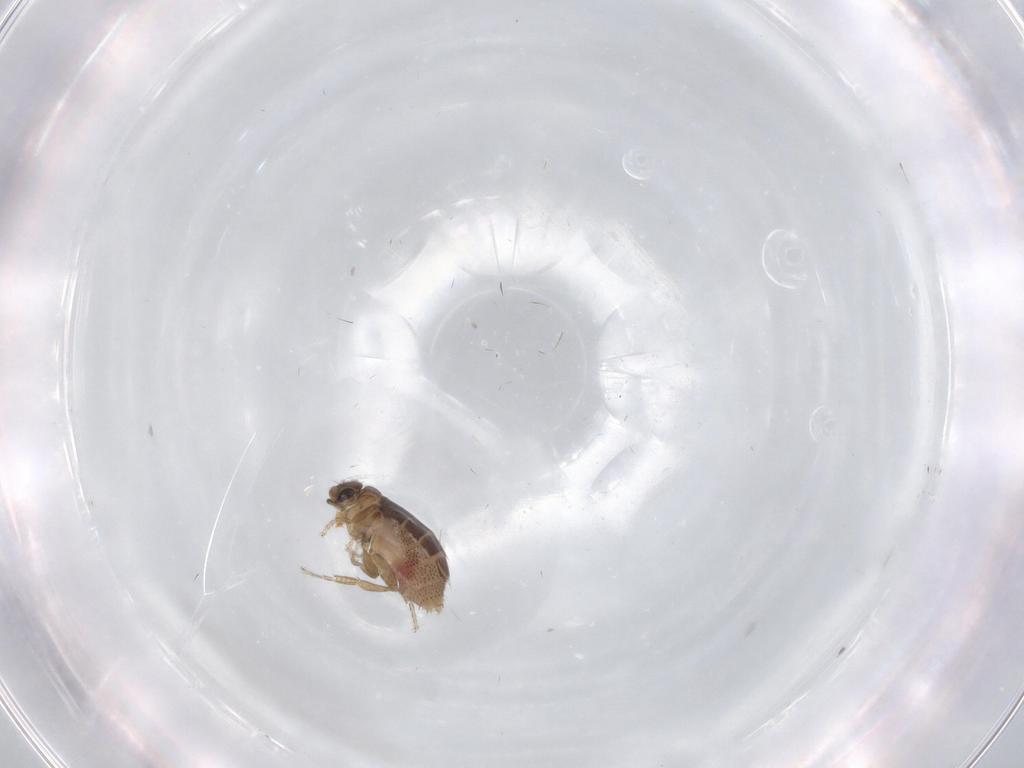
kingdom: Animalia
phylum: Arthropoda
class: Insecta
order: Diptera
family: Phoridae
